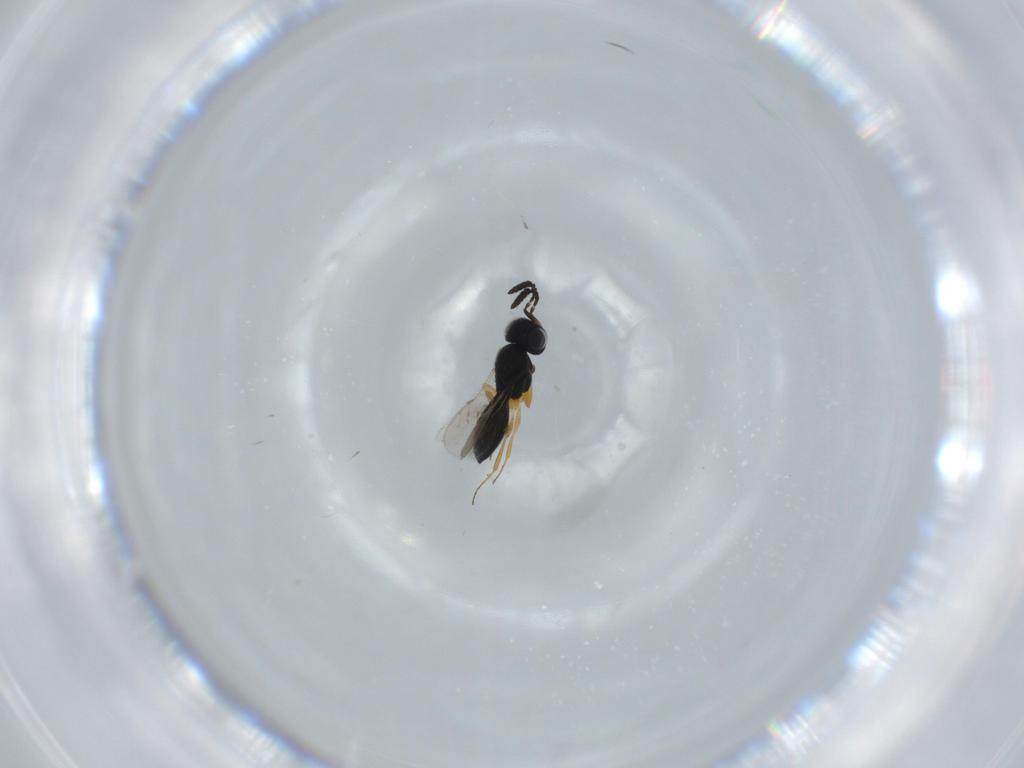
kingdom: Animalia
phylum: Arthropoda
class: Insecta
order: Hymenoptera
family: Scelionidae
